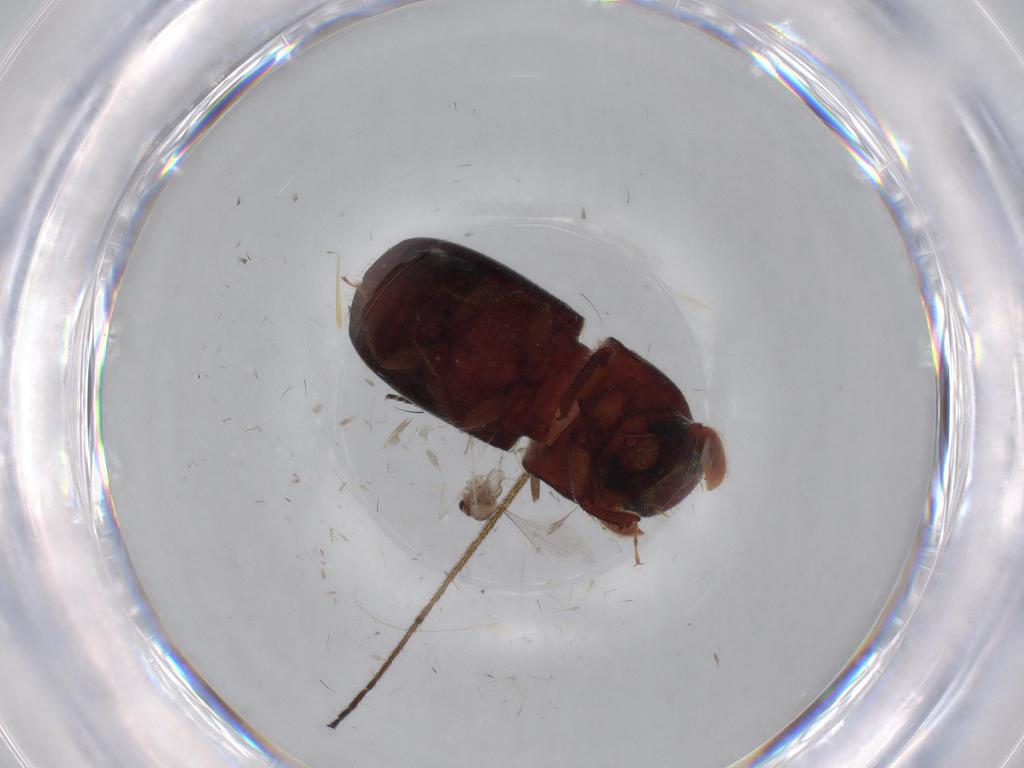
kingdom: Animalia
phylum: Arthropoda
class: Insecta
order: Coleoptera
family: Curculionidae
